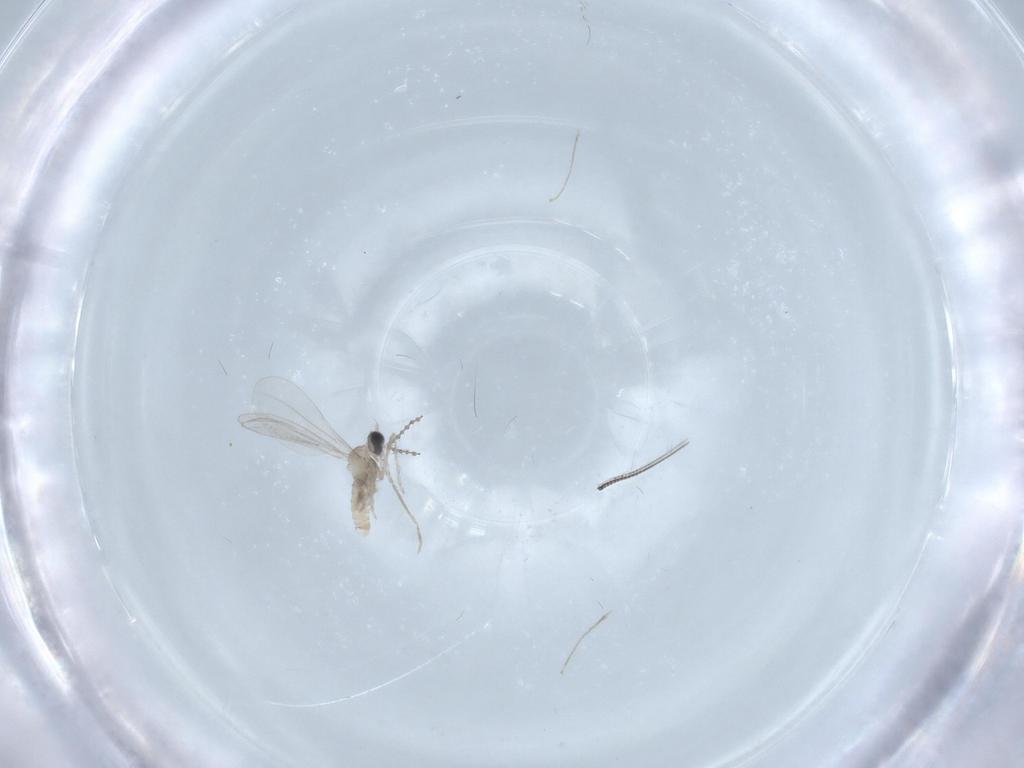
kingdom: Animalia
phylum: Arthropoda
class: Insecta
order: Diptera
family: Cecidomyiidae
